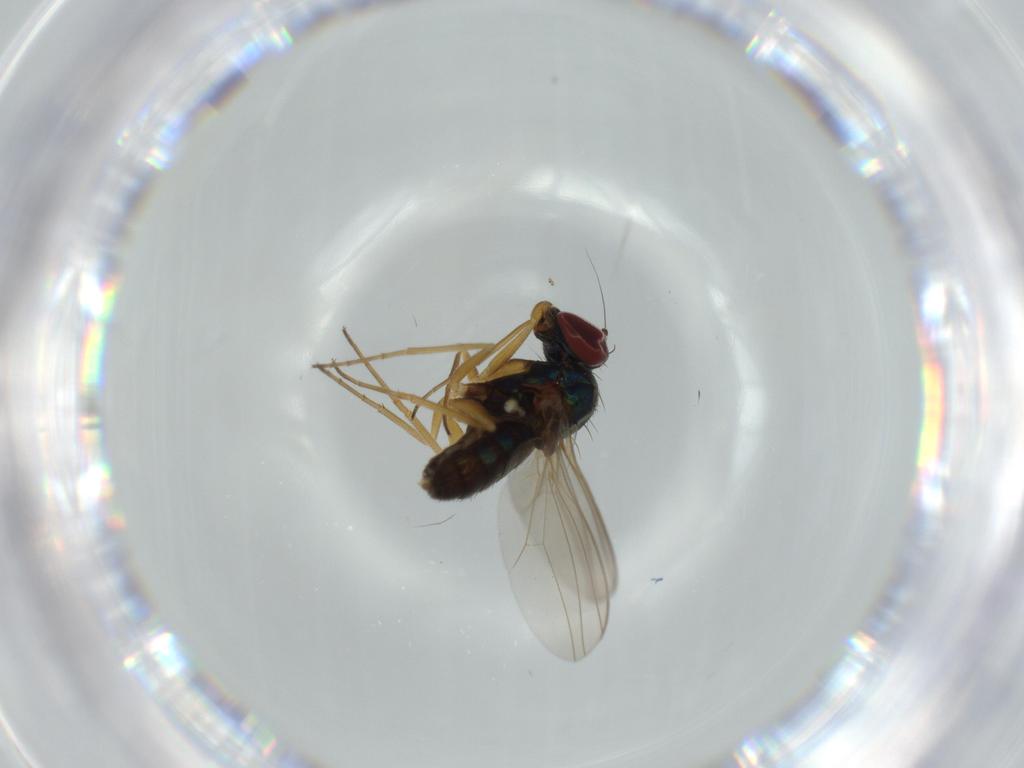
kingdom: Animalia
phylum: Arthropoda
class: Insecta
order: Diptera
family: Dolichopodidae
